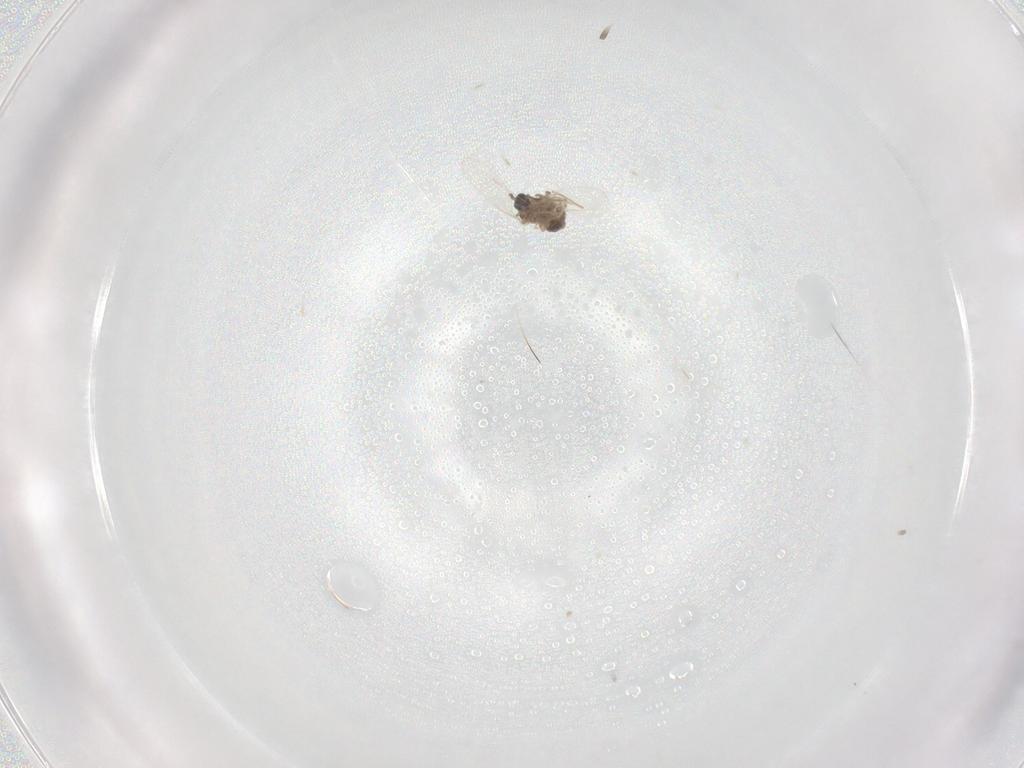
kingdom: Animalia
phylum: Arthropoda
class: Insecta
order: Diptera
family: Cecidomyiidae
